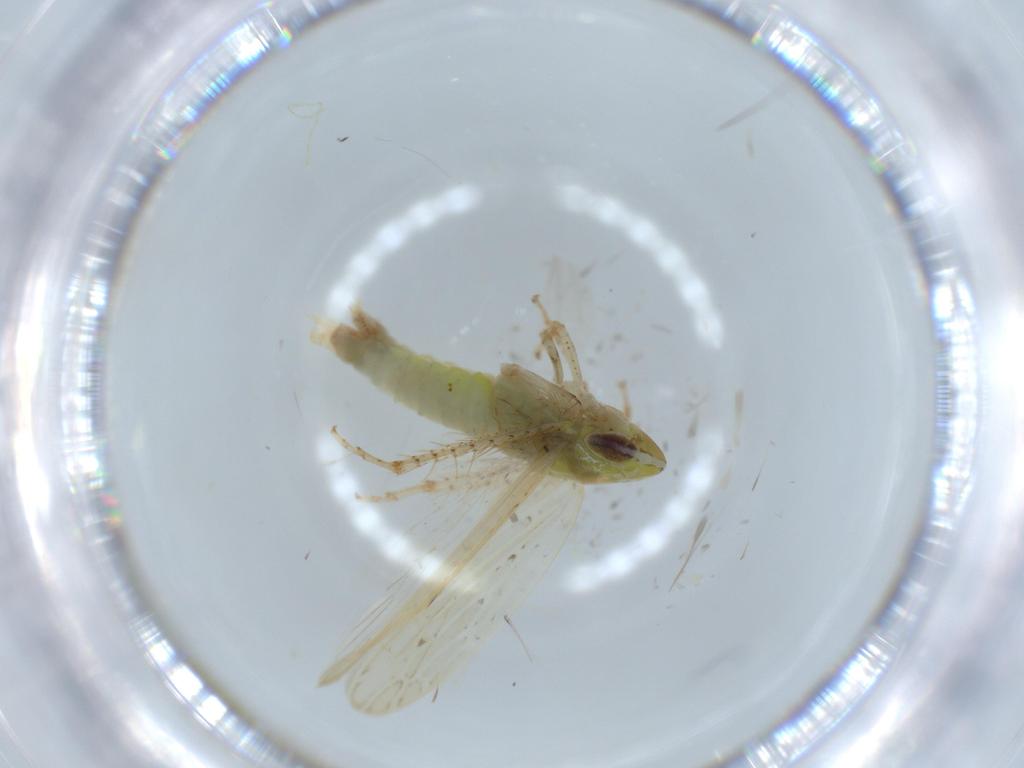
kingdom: Animalia
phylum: Arthropoda
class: Insecta
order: Hemiptera
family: Cicadellidae
